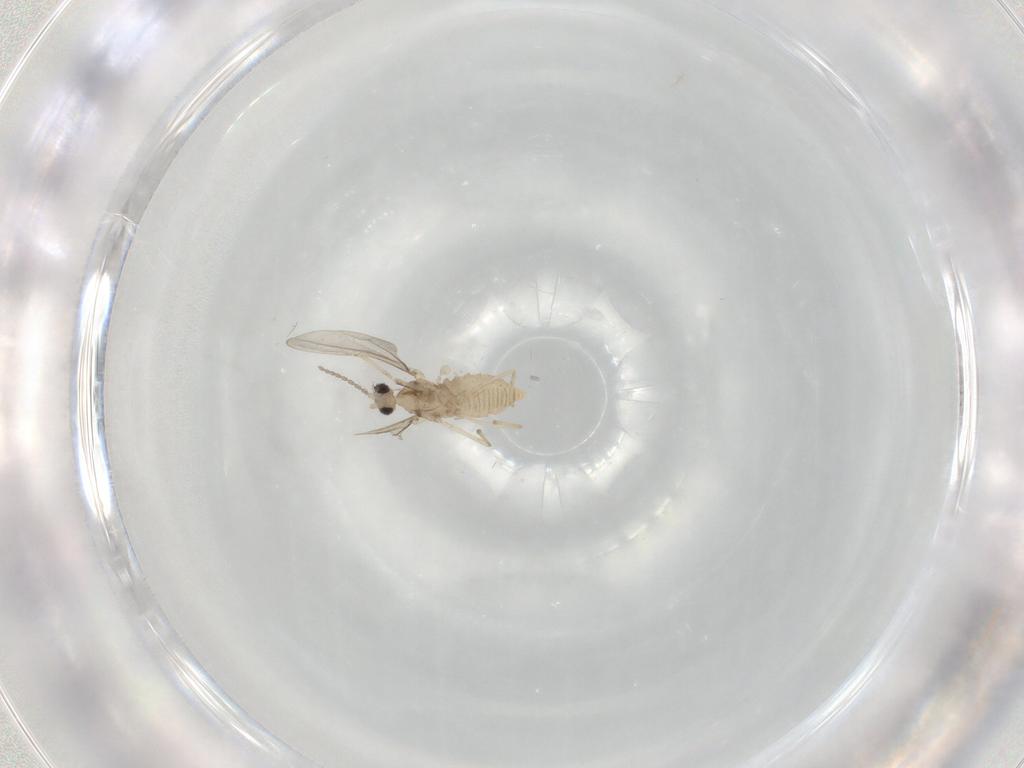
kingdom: Animalia
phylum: Arthropoda
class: Insecta
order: Diptera
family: Cecidomyiidae
